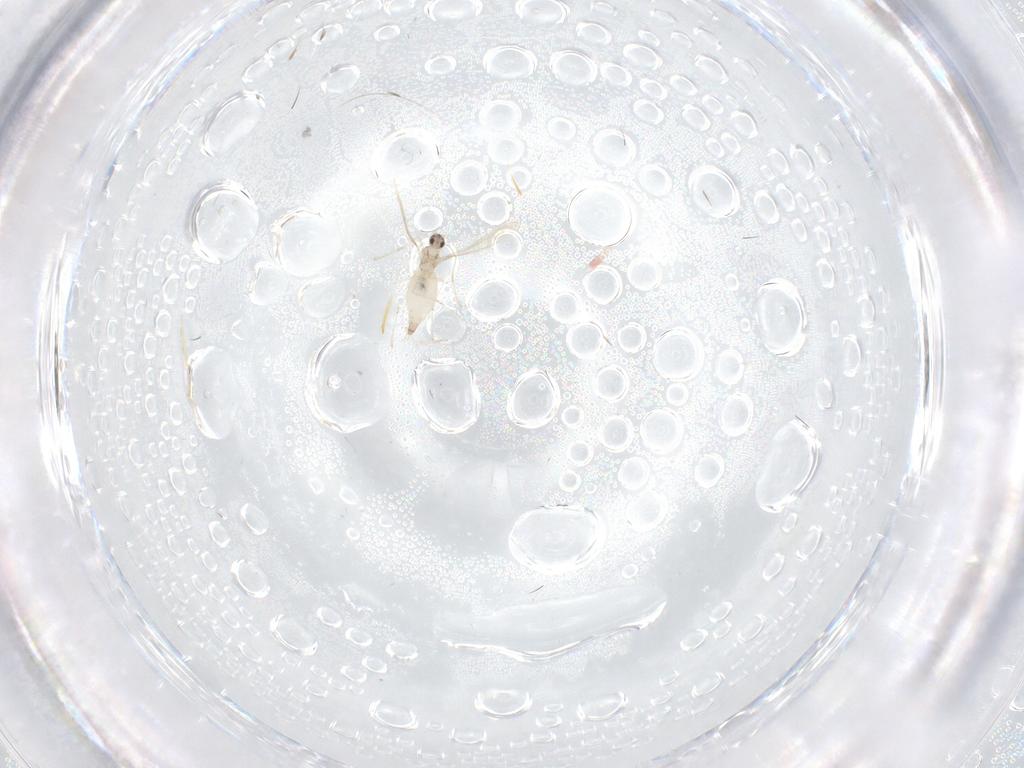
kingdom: Animalia
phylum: Arthropoda
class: Insecta
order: Diptera
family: Cecidomyiidae
